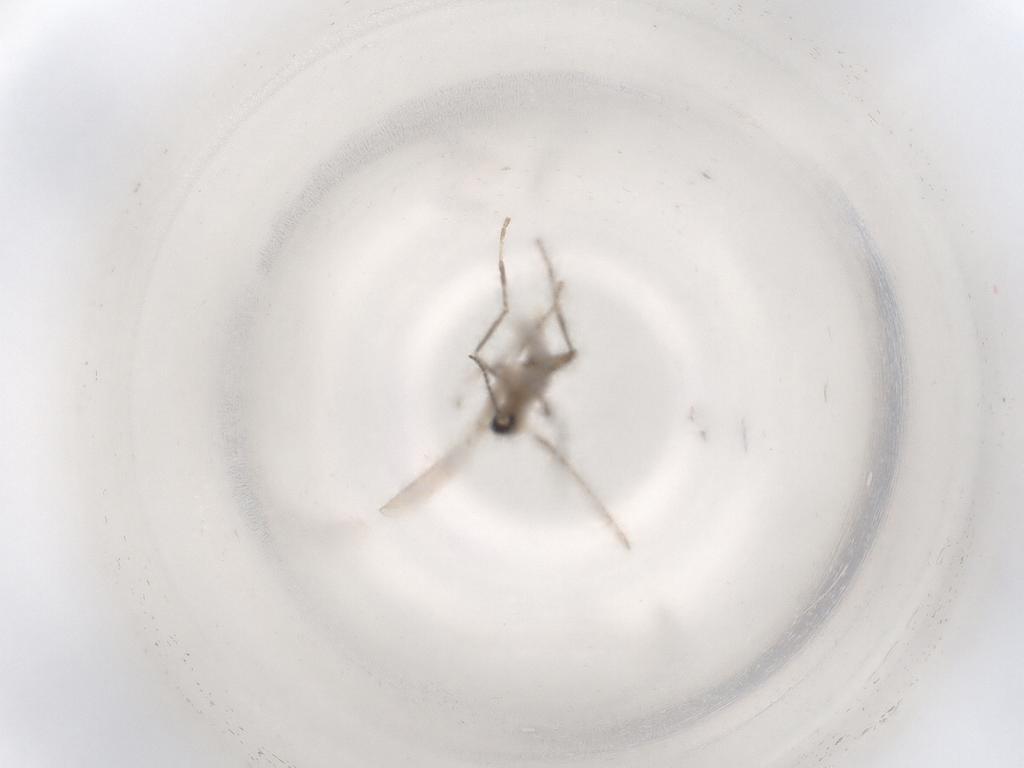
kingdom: Animalia
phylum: Arthropoda
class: Insecta
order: Diptera
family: Cecidomyiidae
